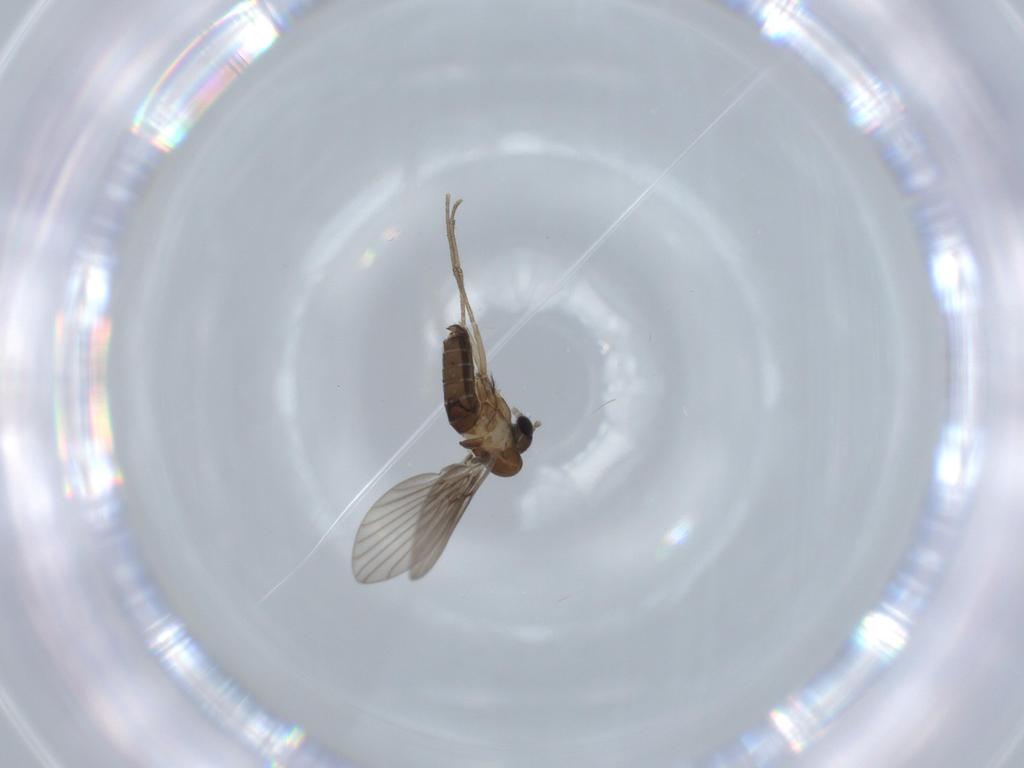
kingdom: Animalia
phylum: Arthropoda
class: Insecta
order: Diptera
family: Psychodidae
